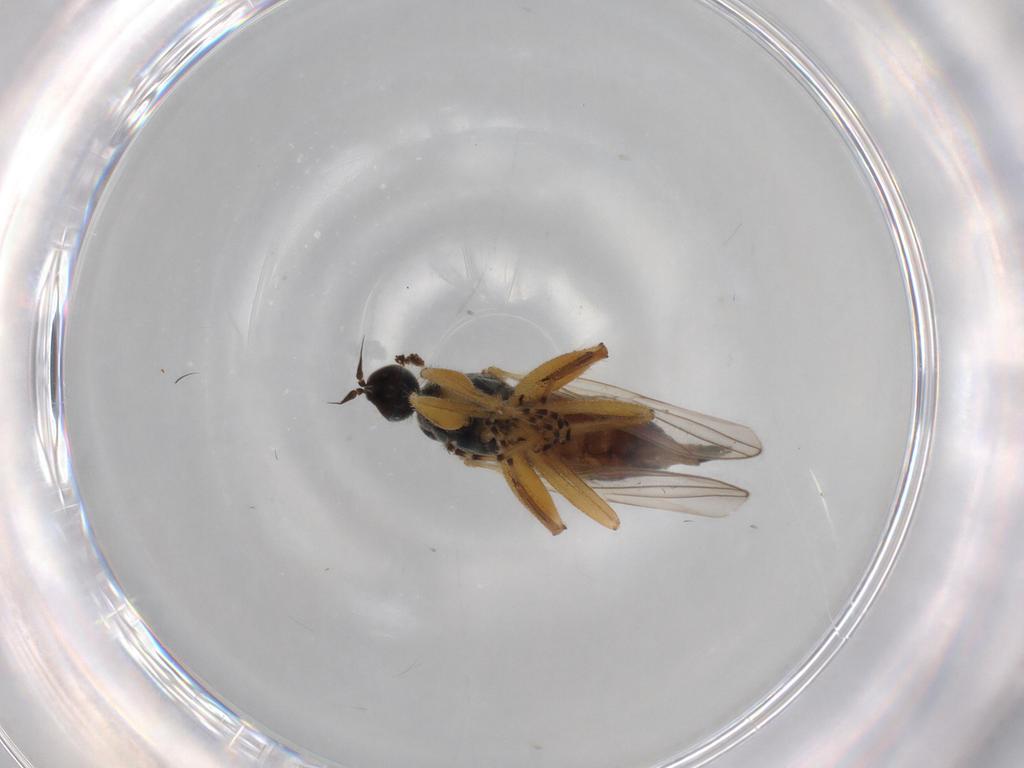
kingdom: Animalia
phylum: Arthropoda
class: Insecta
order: Diptera
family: Hybotidae
